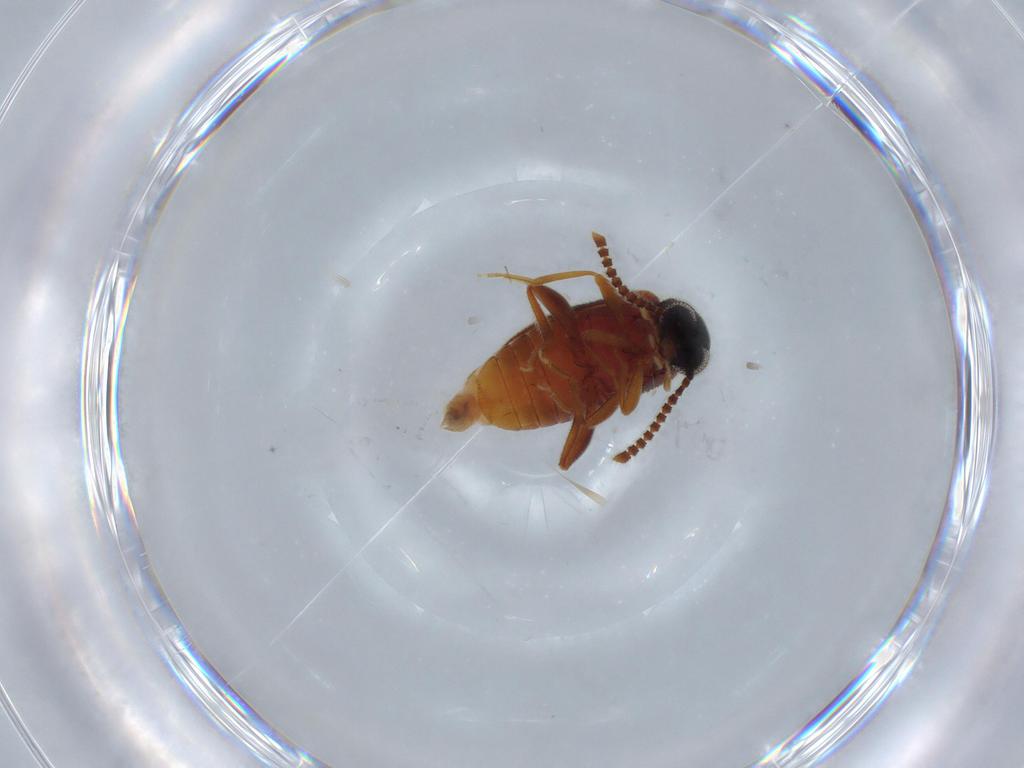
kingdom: Animalia
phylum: Arthropoda
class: Insecta
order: Coleoptera
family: Aderidae
